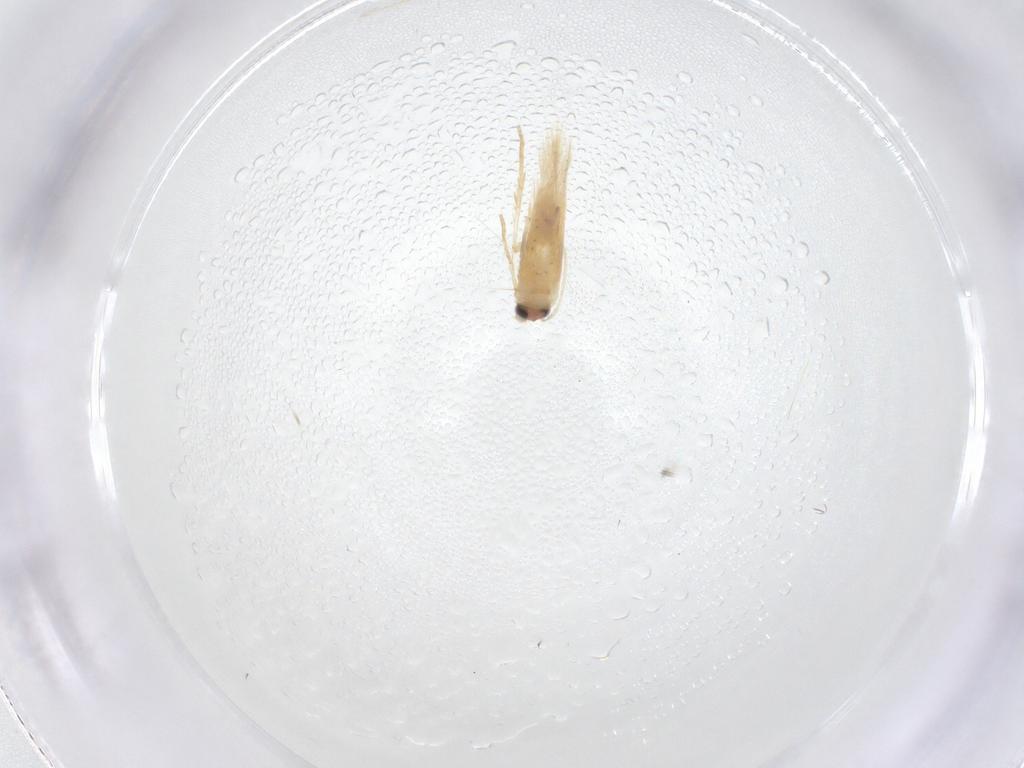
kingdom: Animalia
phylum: Arthropoda
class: Insecta
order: Lepidoptera
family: Nepticulidae
